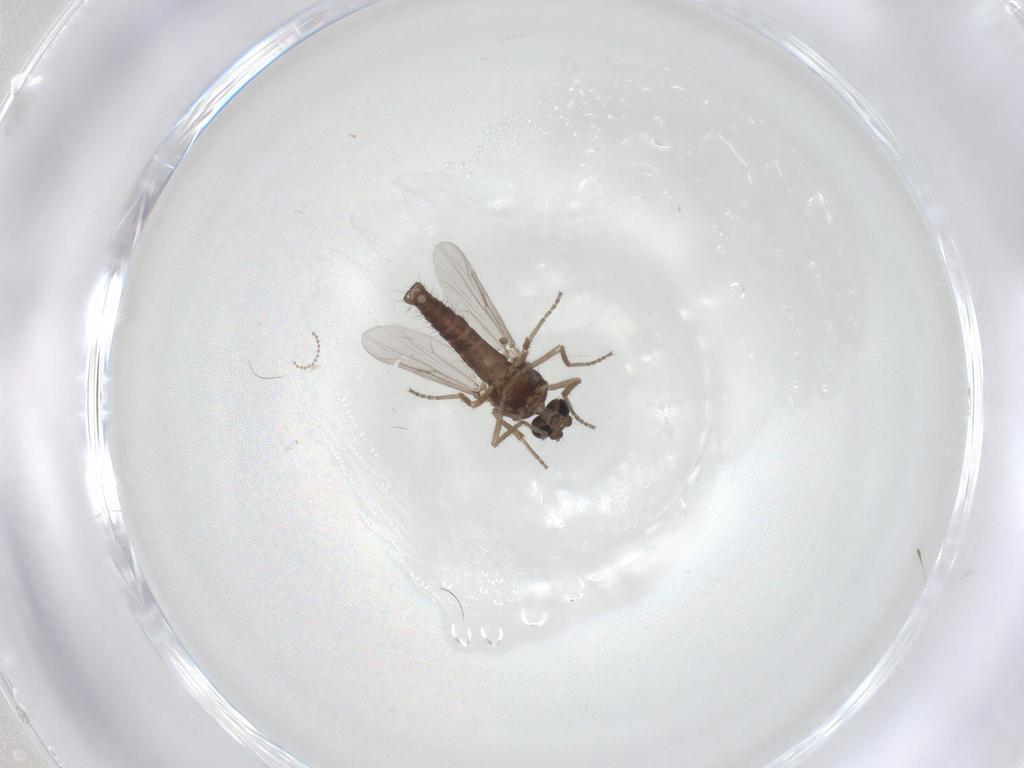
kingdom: Animalia
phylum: Arthropoda
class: Insecta
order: Diptera
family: Ceratopogonidae
